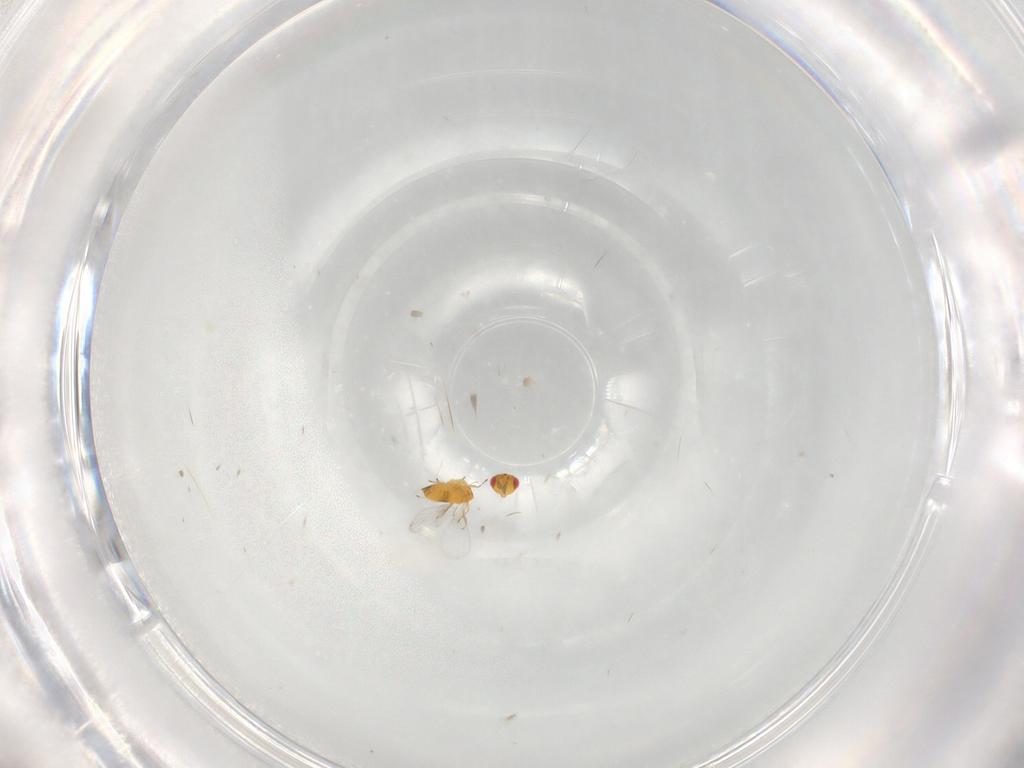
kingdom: Animalia
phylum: Arthropoda
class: Insecta
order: Hymenoptera
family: Trichogrammatidae
